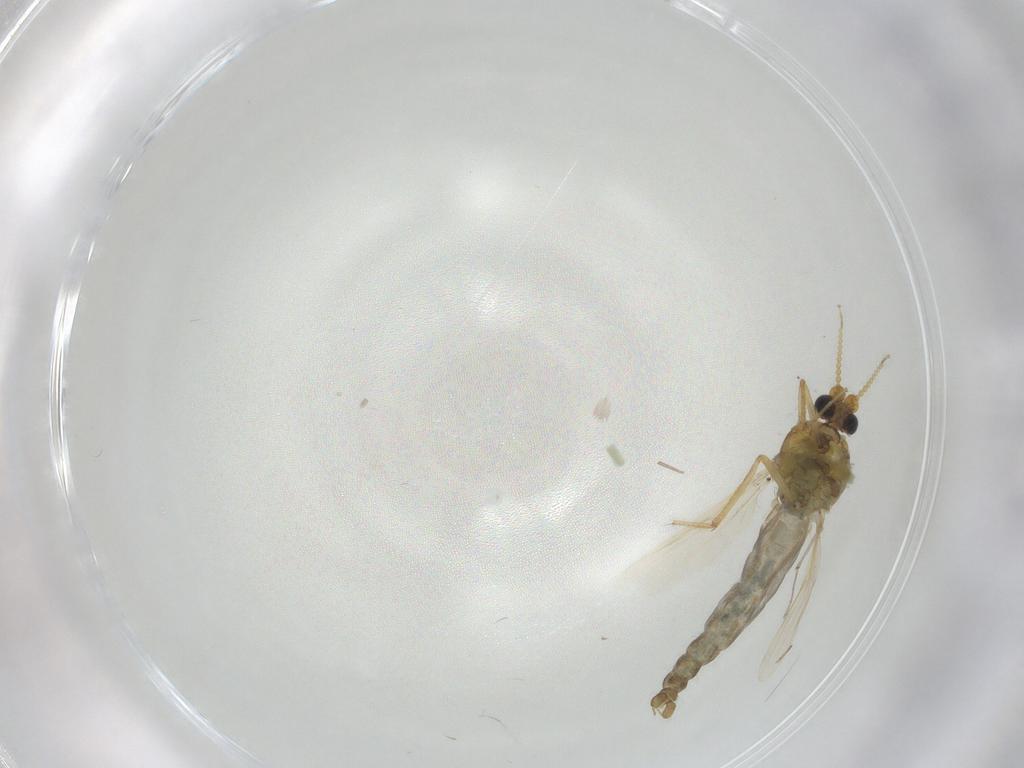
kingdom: Animalia
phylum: Arthropoda
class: Insecta
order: Diptera
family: Ceratopogonidae
